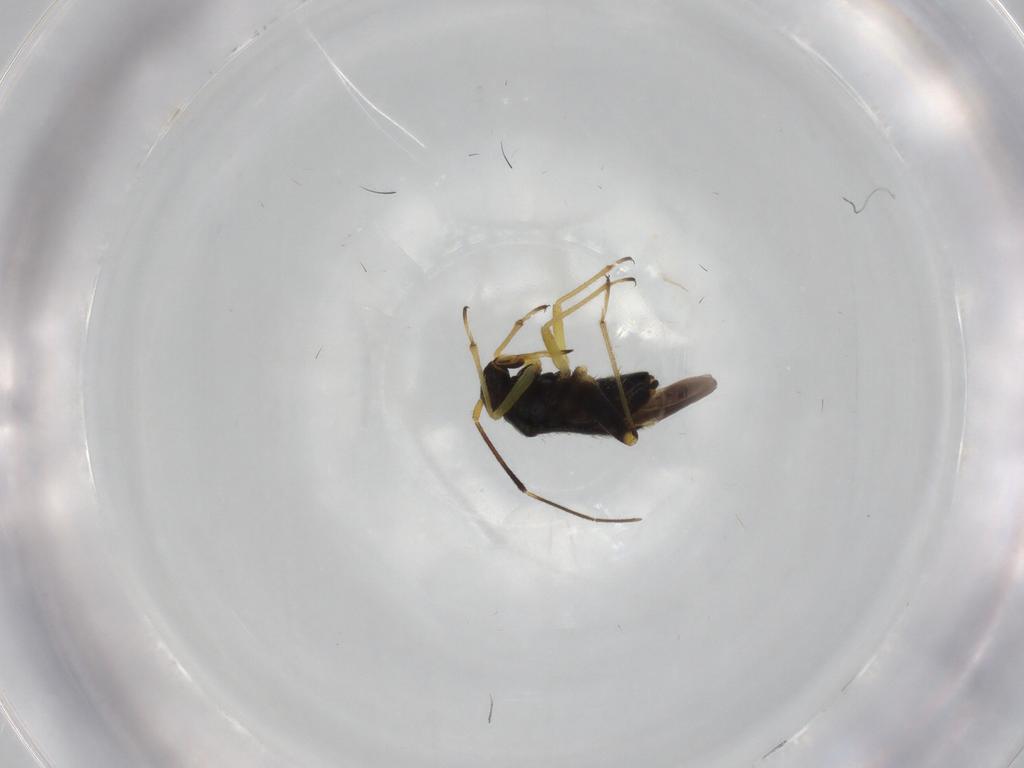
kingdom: Animalia
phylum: Arthropoda
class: Insecta
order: Hemiptera
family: Miridae
